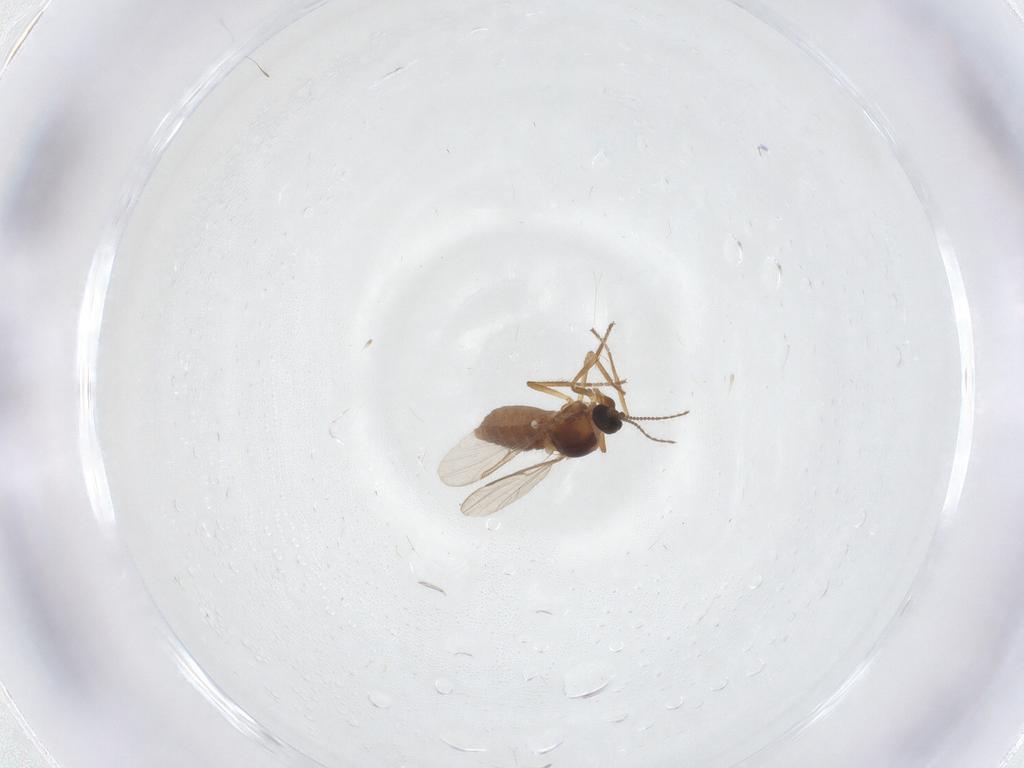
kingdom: Animalia
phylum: Arthropoda
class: Insecta
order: Diptera
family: Ceratopogonidae
